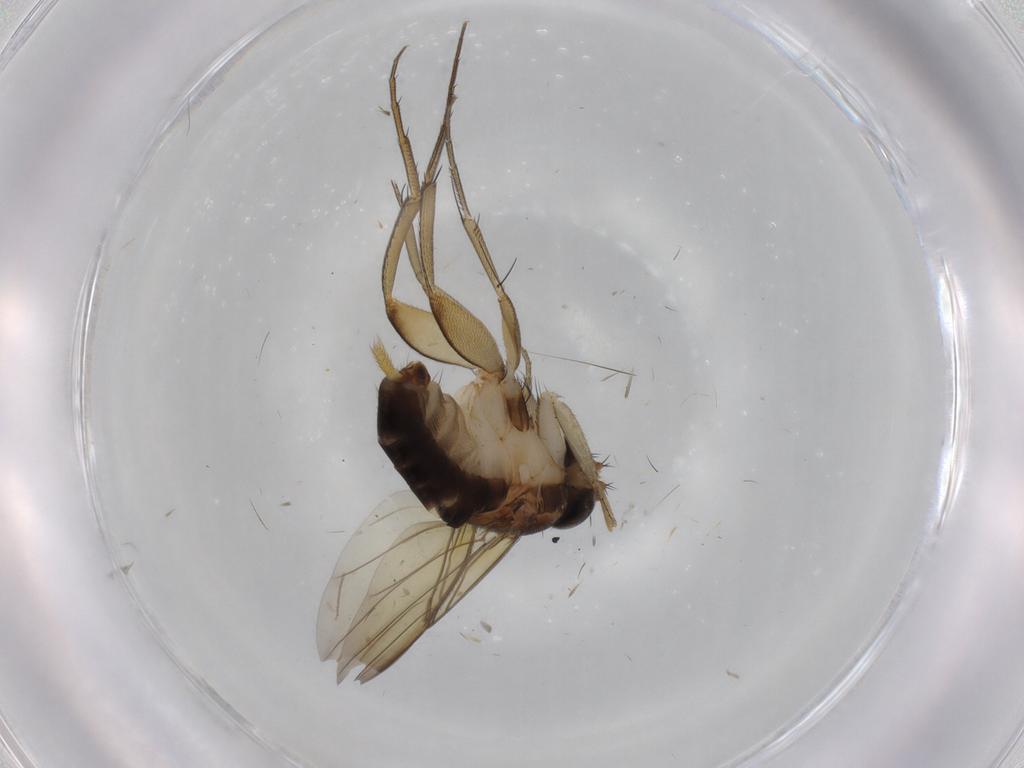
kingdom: Animalia
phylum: Arthropoda
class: Insecta
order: Diptera
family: Phoridae
